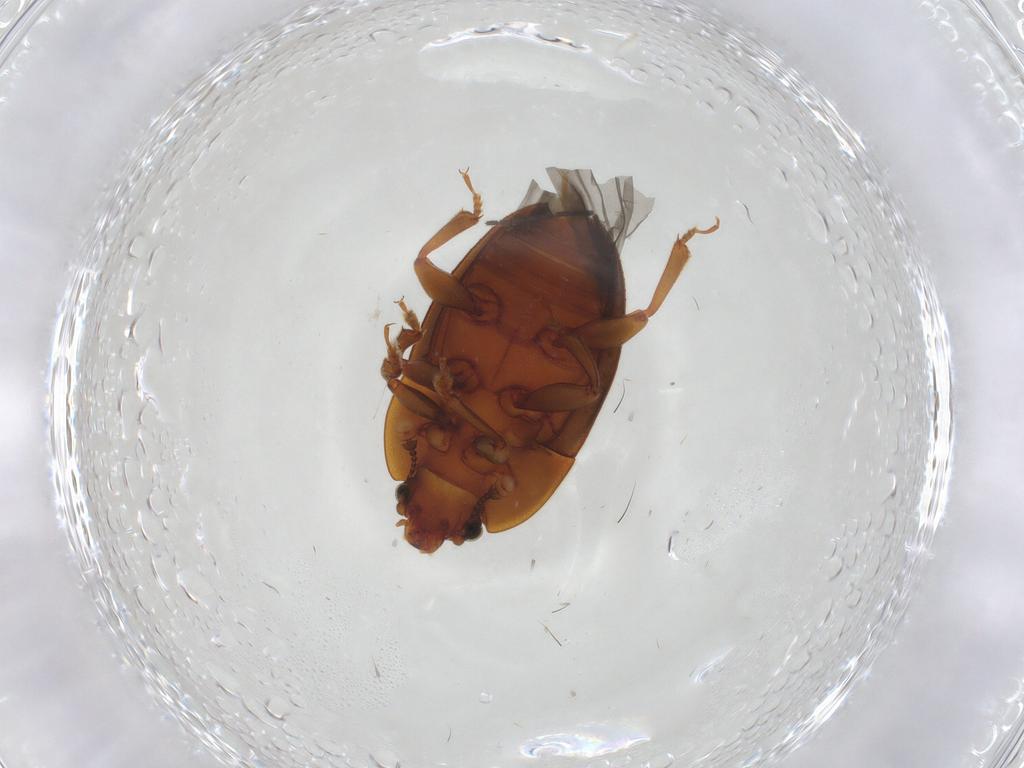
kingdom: Animalia
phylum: Arthropoda
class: Insecta
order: Coleoptera
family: Nitidulidae
